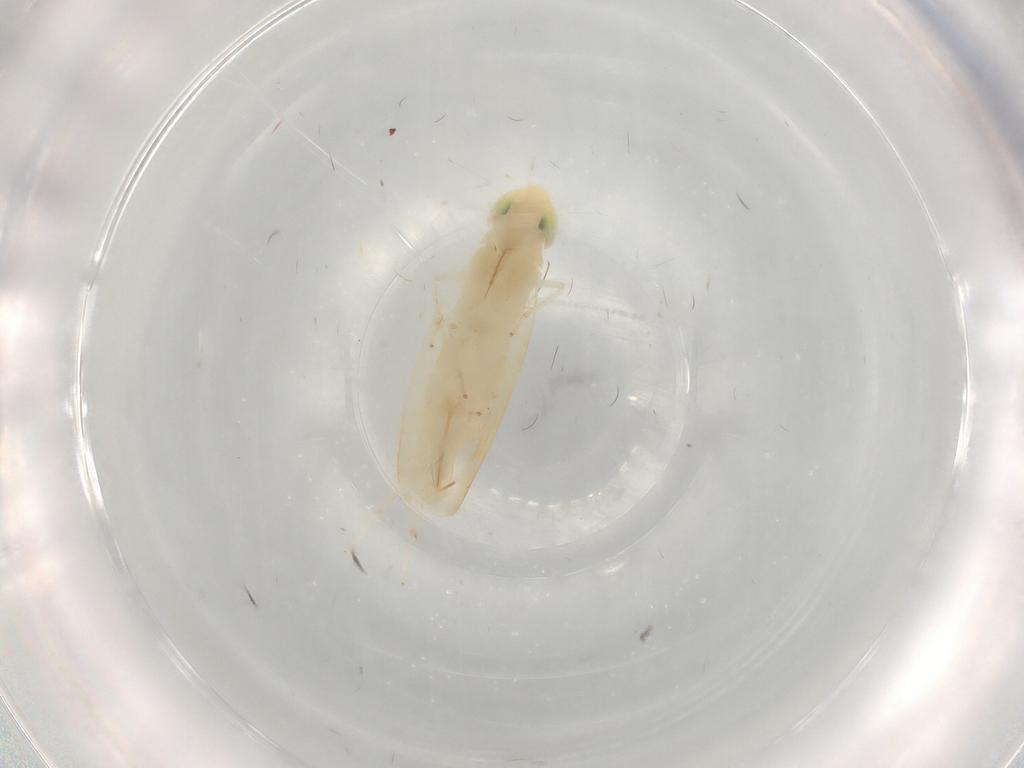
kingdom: Animalia
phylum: Arthropoda
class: Insecta
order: Hemiptera
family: Cicadellidae
